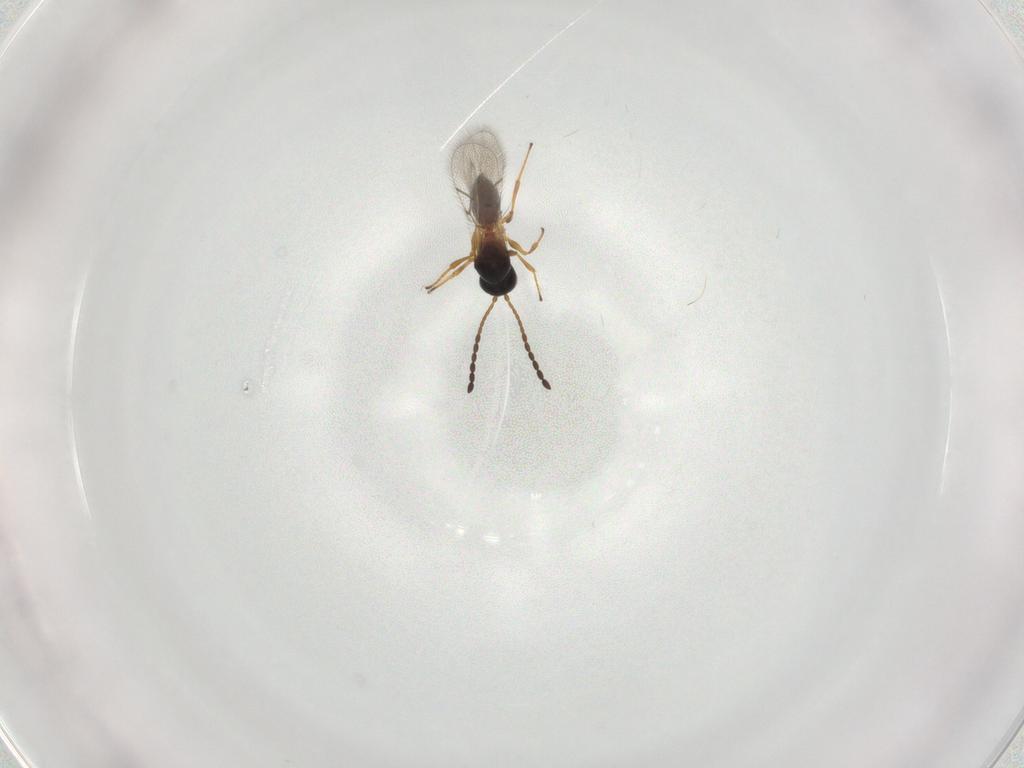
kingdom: Animalia
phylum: Arthropoda
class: Insecta
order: Hymenoptera
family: Figitidae
